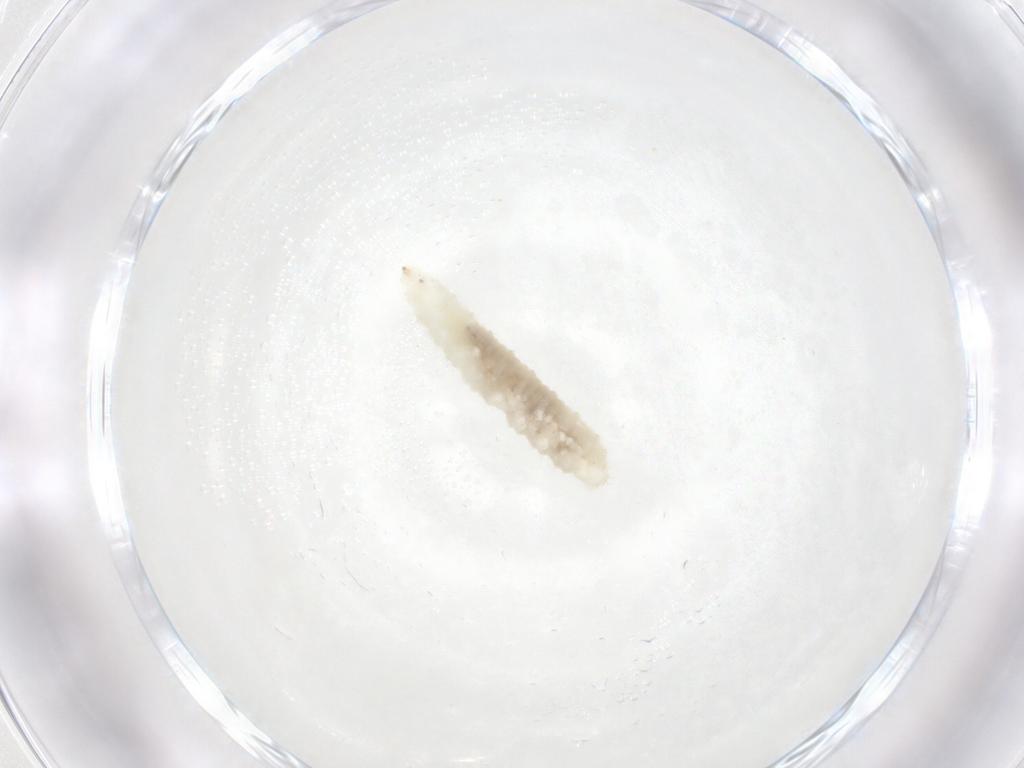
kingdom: Animalia
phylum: Arthropoda
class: Insecta
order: Diptera
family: Cecidomyiidae
